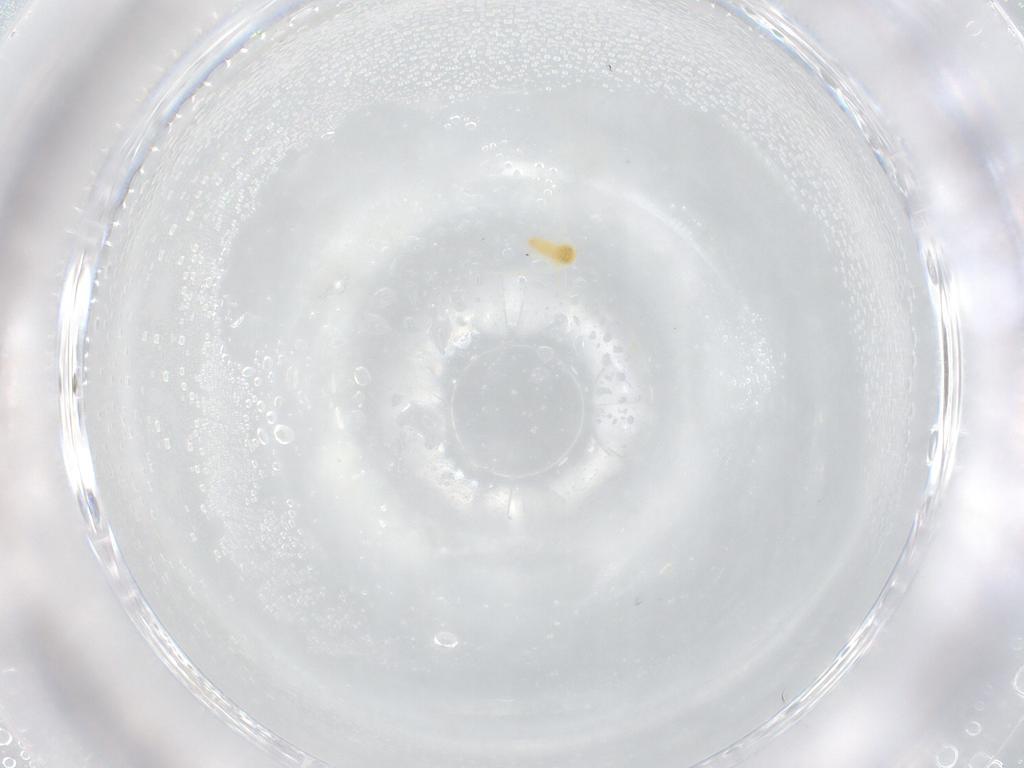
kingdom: Animalia
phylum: Arthropoda
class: Insecta
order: Hemiptera
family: Aleyrodidae
